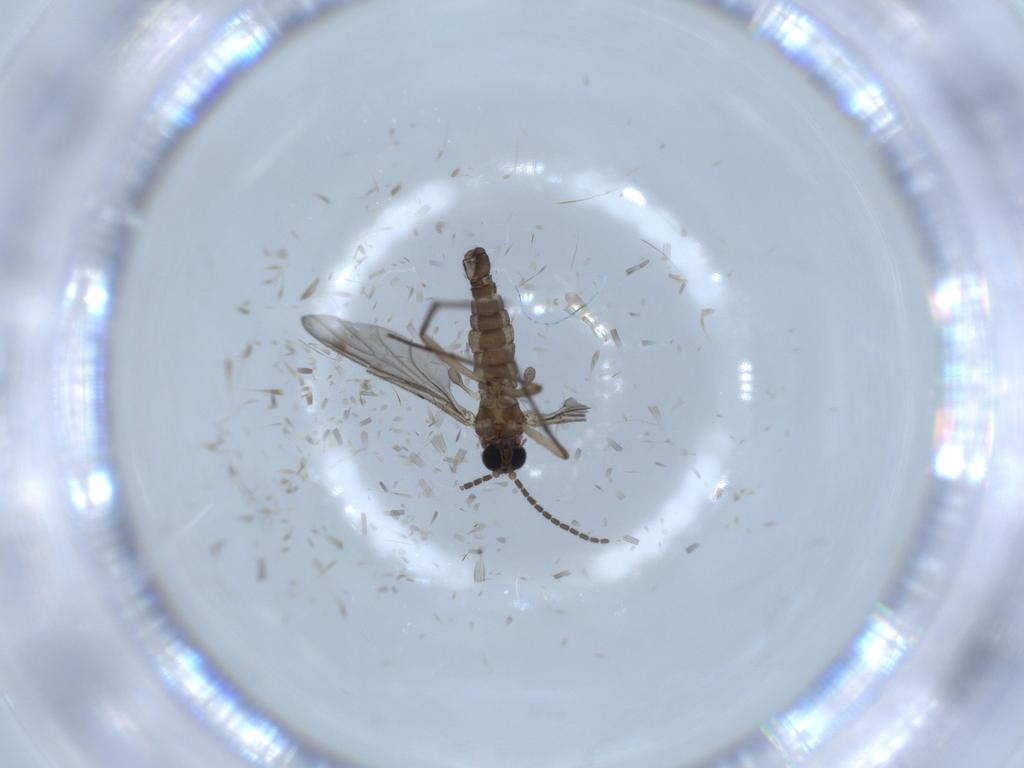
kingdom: Animalia
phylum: Arthropoda
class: Insecta
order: Diptera
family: Sciaridae
